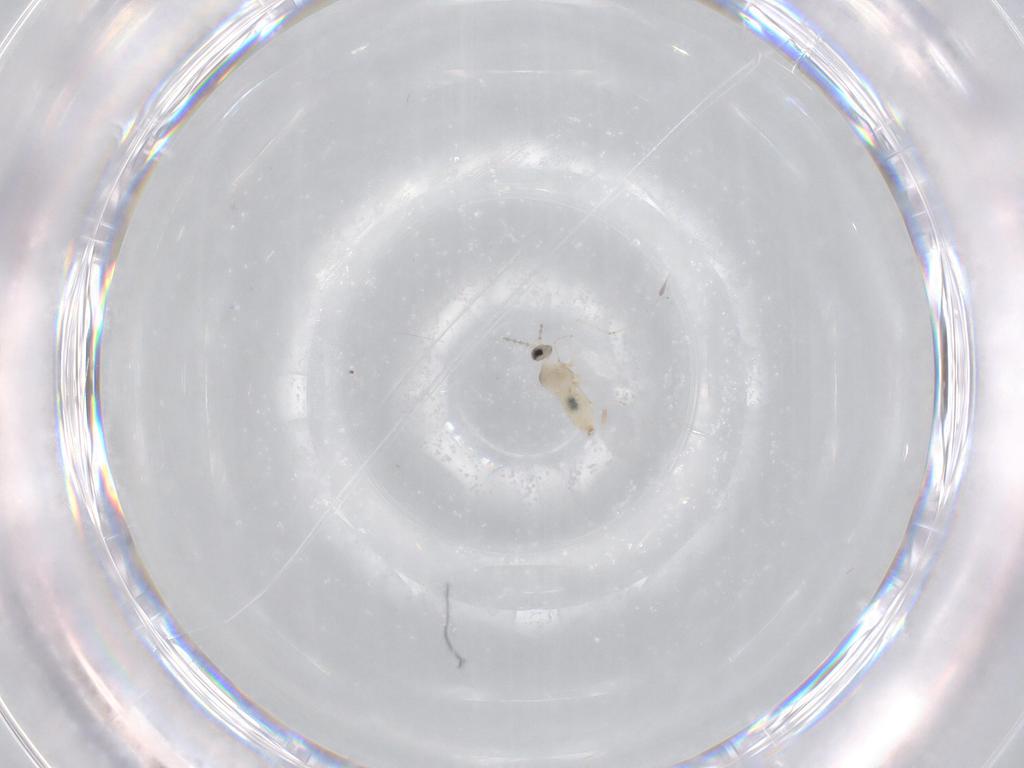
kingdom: Animalia
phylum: Arthropoda
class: Insecta
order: Diptera
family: Cecidomyiidae
